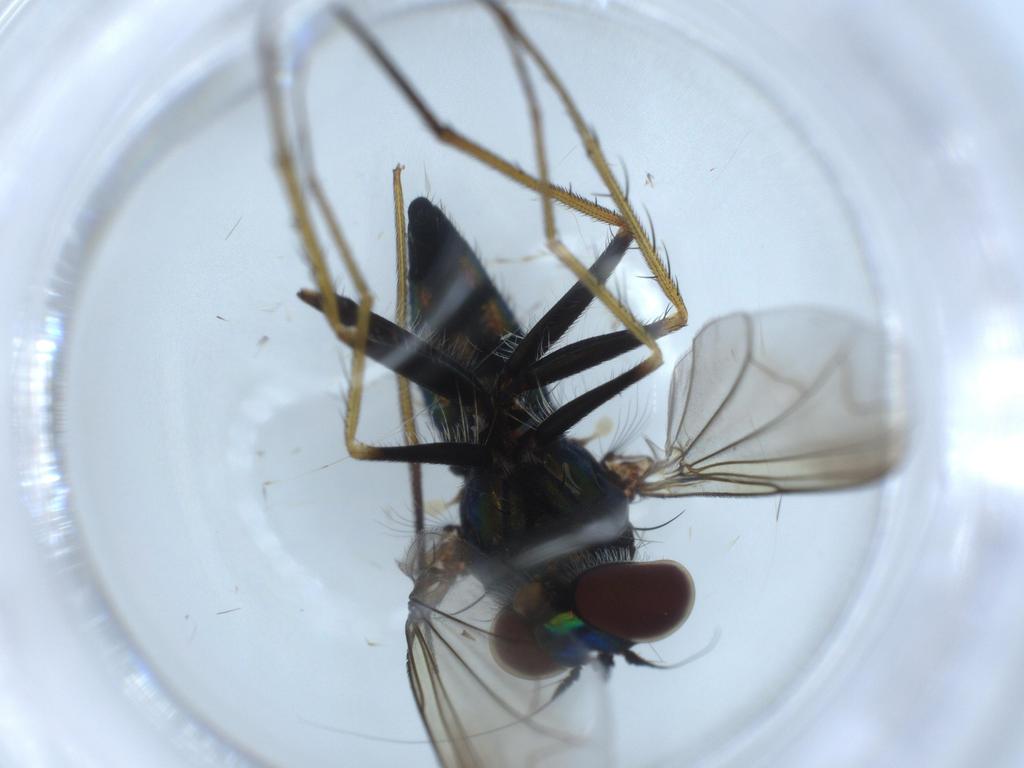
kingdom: Animalia
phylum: Arthropoda
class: Insecta
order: Diptera
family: Dolichopodidae
